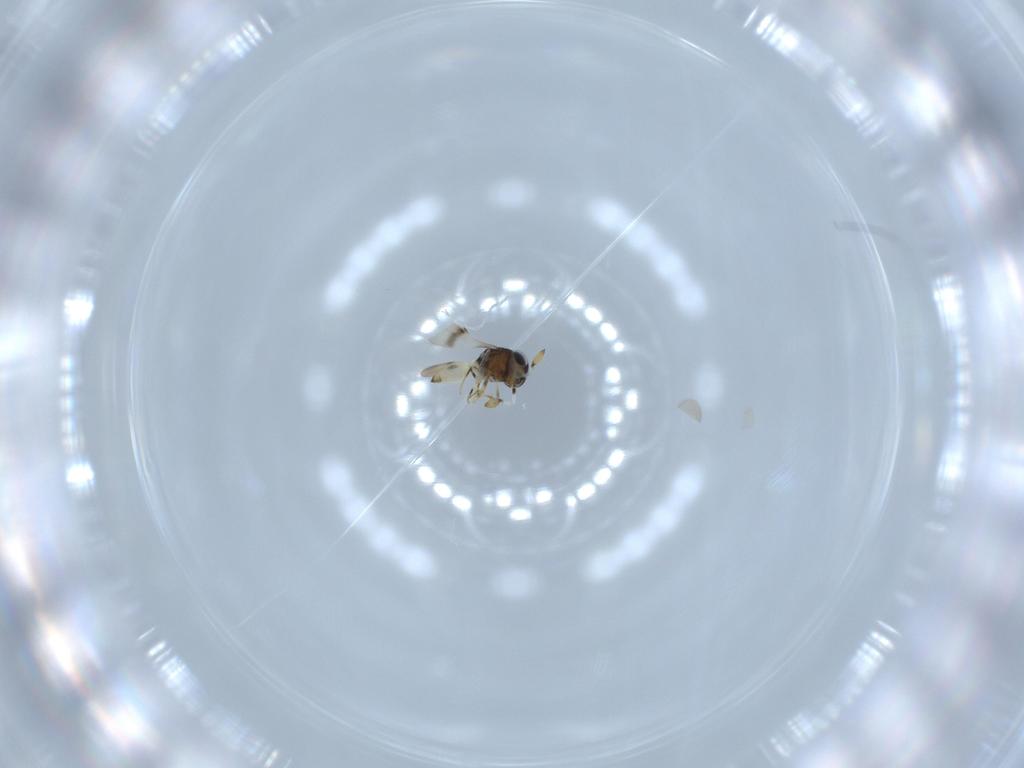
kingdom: Animalia
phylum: Arthropoda
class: Insecta
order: Hymenoptera
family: Scelionidae
